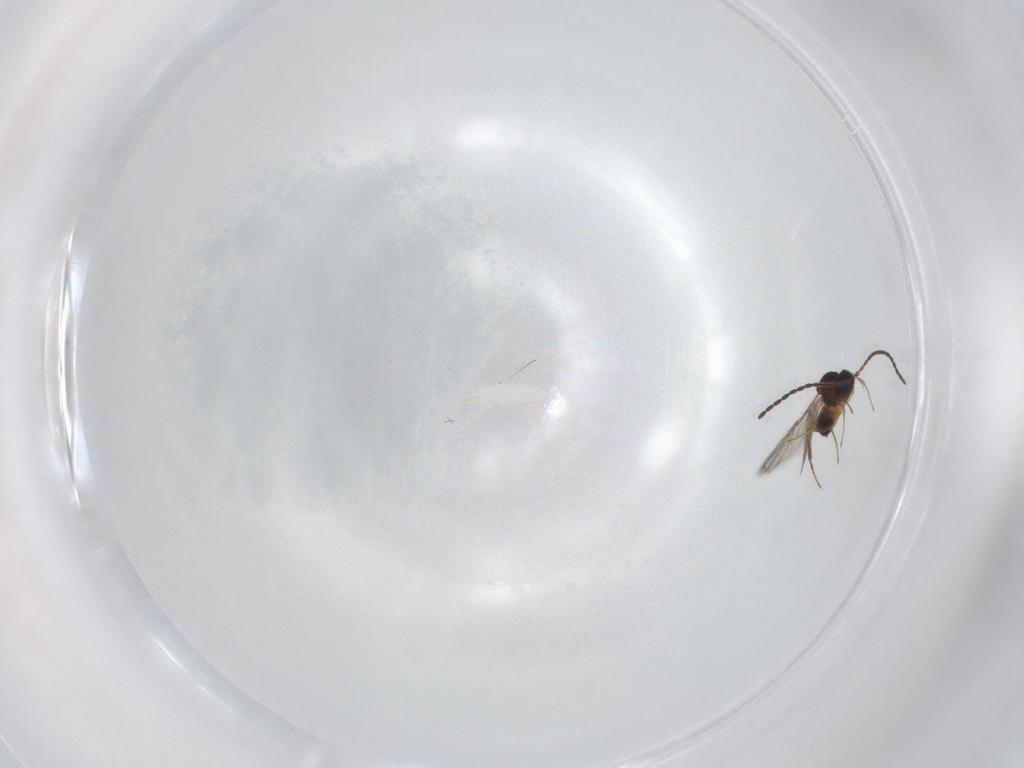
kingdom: Animalia
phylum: Arthropoda
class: Insecta
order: Hymenoptera
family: Figitidae
